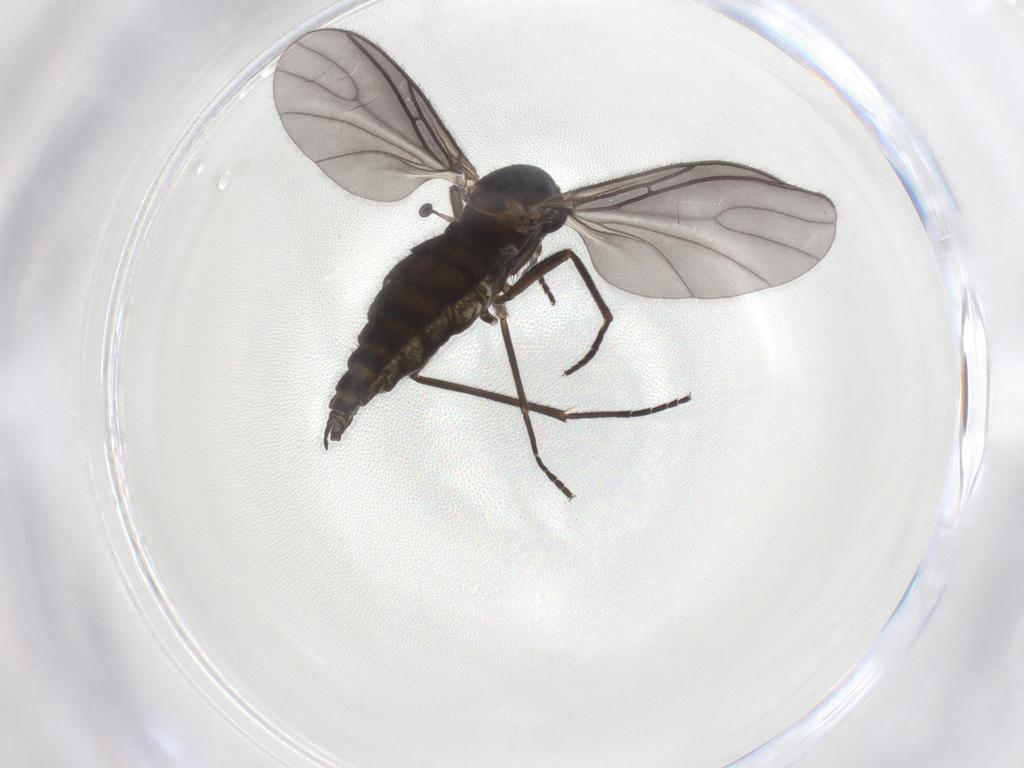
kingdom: Animalia
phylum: Arthropoda
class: Insecta
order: Diptera
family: Sciaridae
